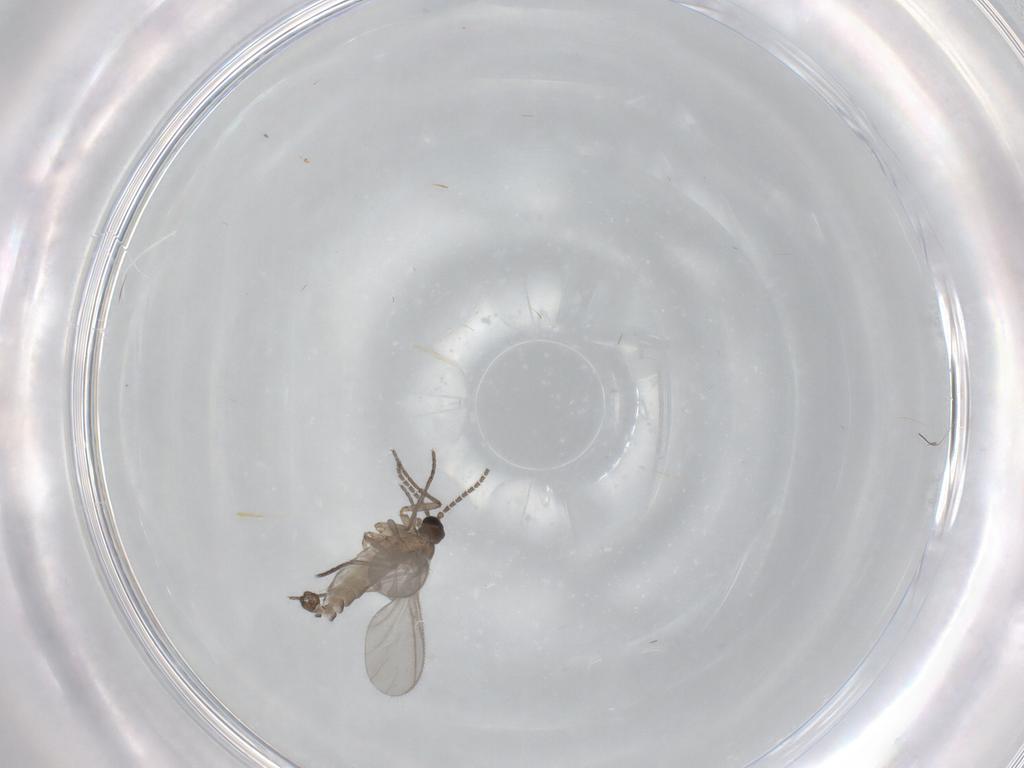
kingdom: Animalia
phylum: Arthropoda
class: Insecta
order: Diptera
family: Sciaridae
